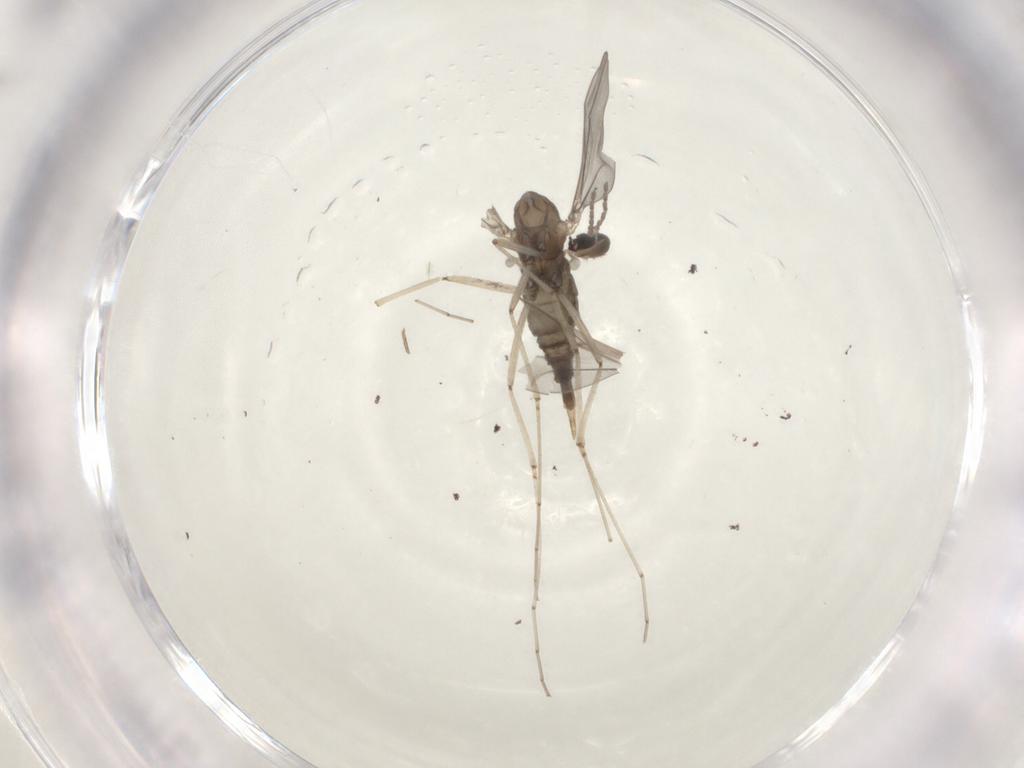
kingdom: Animalia
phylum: Arthropoda
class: Insecta
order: Diptera
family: Cecidomyiidae
